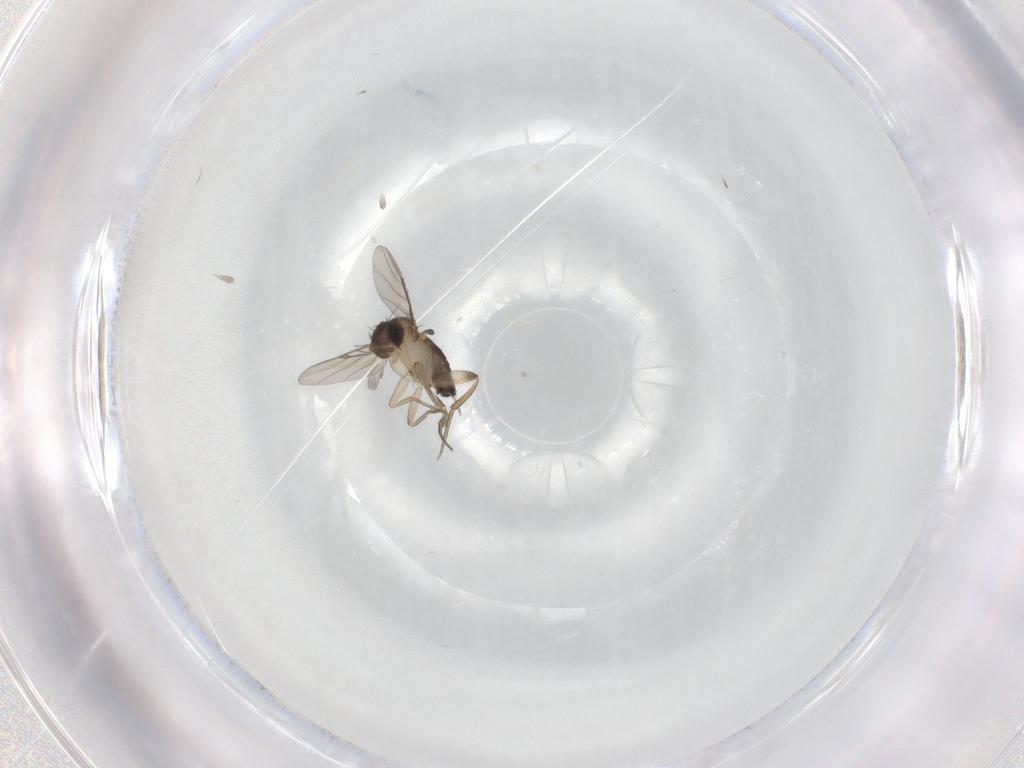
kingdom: Animalia
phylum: Arthropoda
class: Insecta
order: Diptera
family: Phoridae
